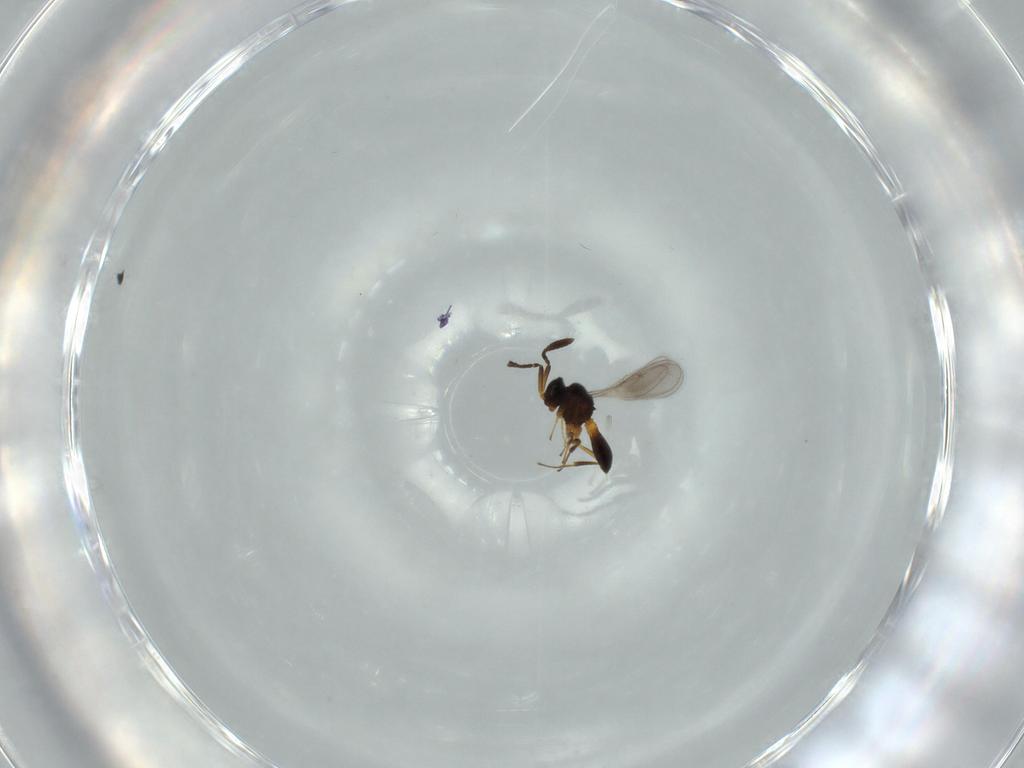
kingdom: Animalia
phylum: Arthropoda
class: Insecta
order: Hymenoptera
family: Scelionidae
